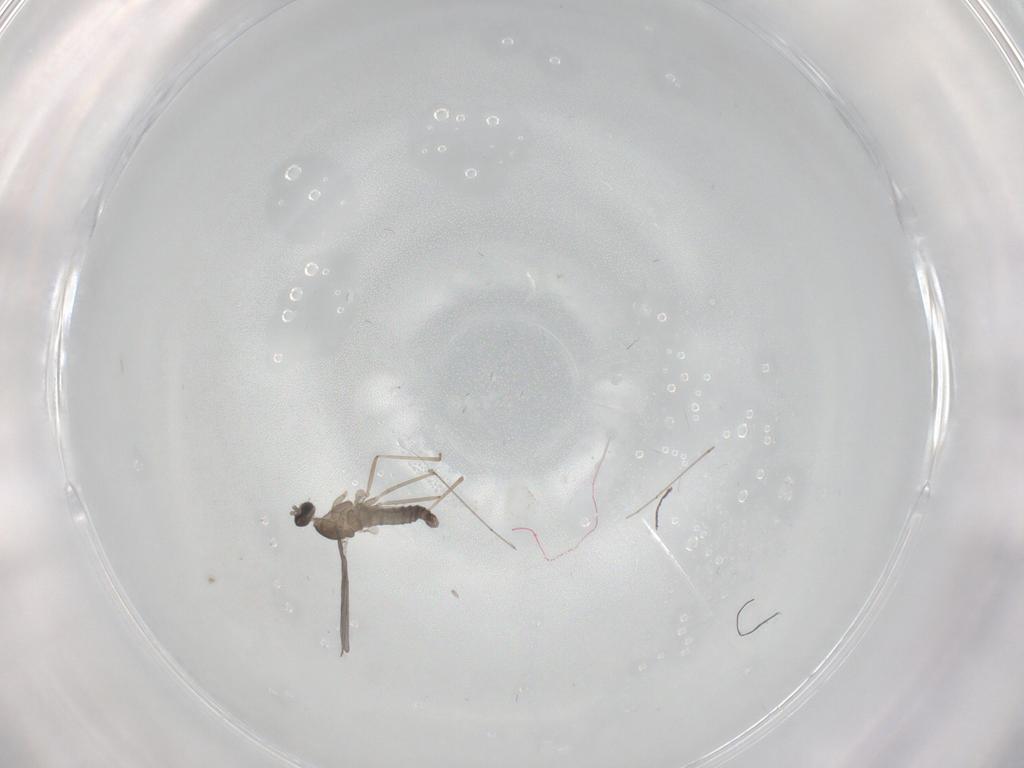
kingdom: Animalia
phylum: Arthropoda
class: Insecta
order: Diptera
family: Cecidomyiidae
